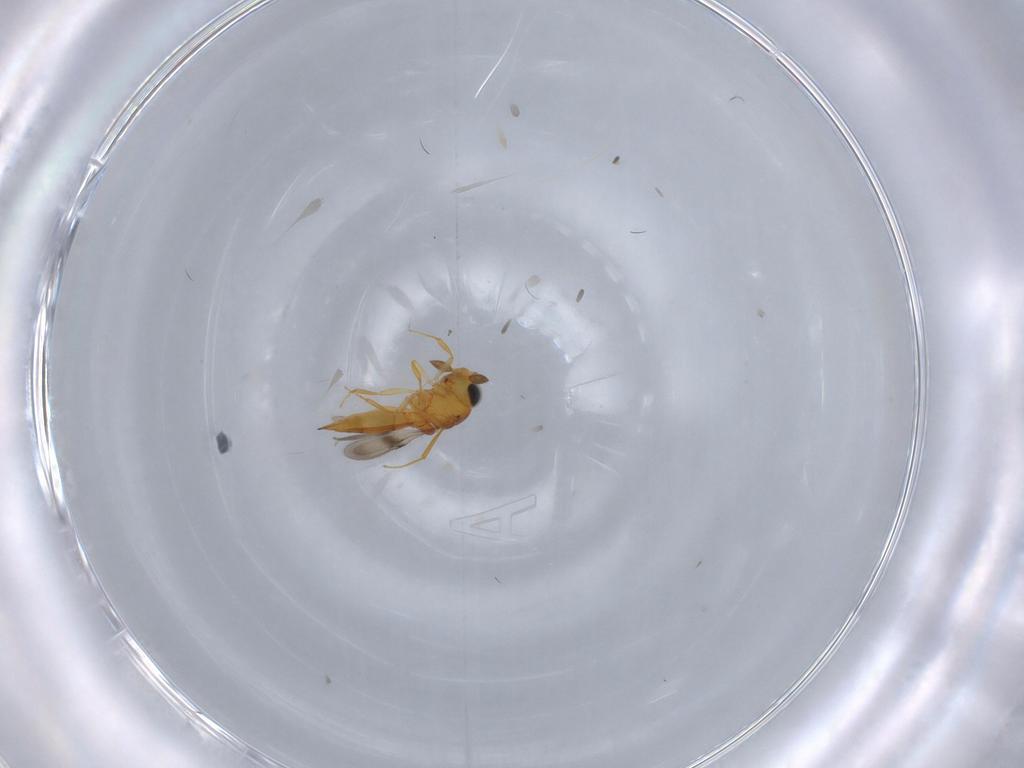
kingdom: Animalia
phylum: Arthropoda
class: Insecta
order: Hymenoptera
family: Scelionidae
